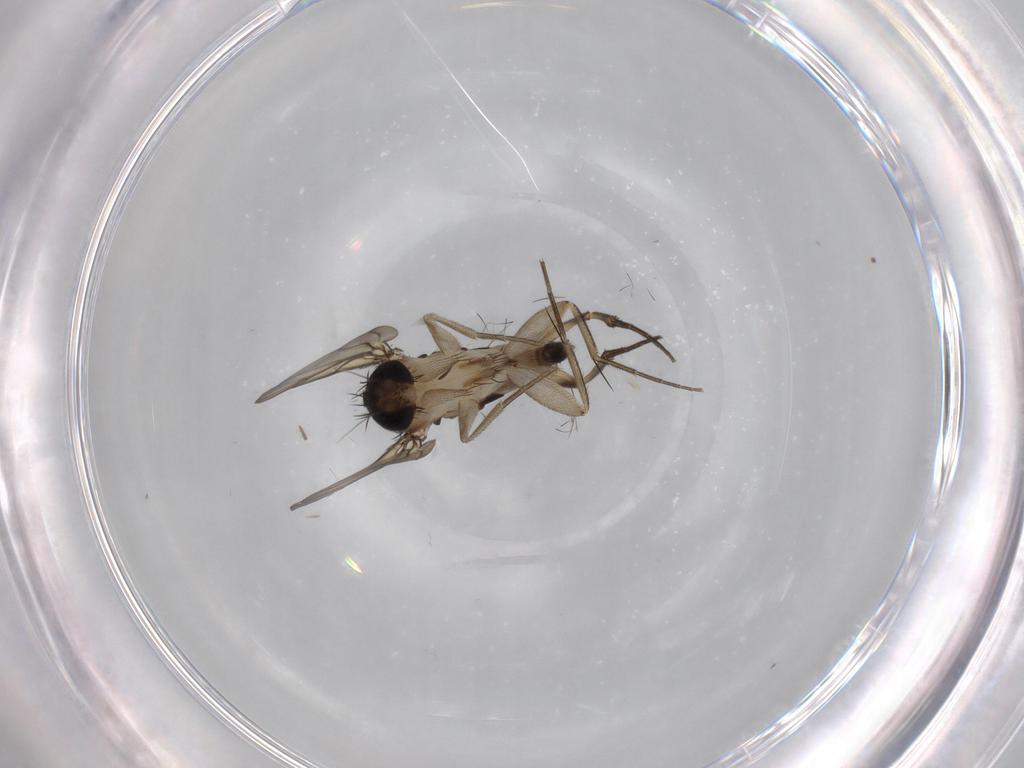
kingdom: Animalia
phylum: Arthropoda
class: Insecta
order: Diptera
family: Phoridae
